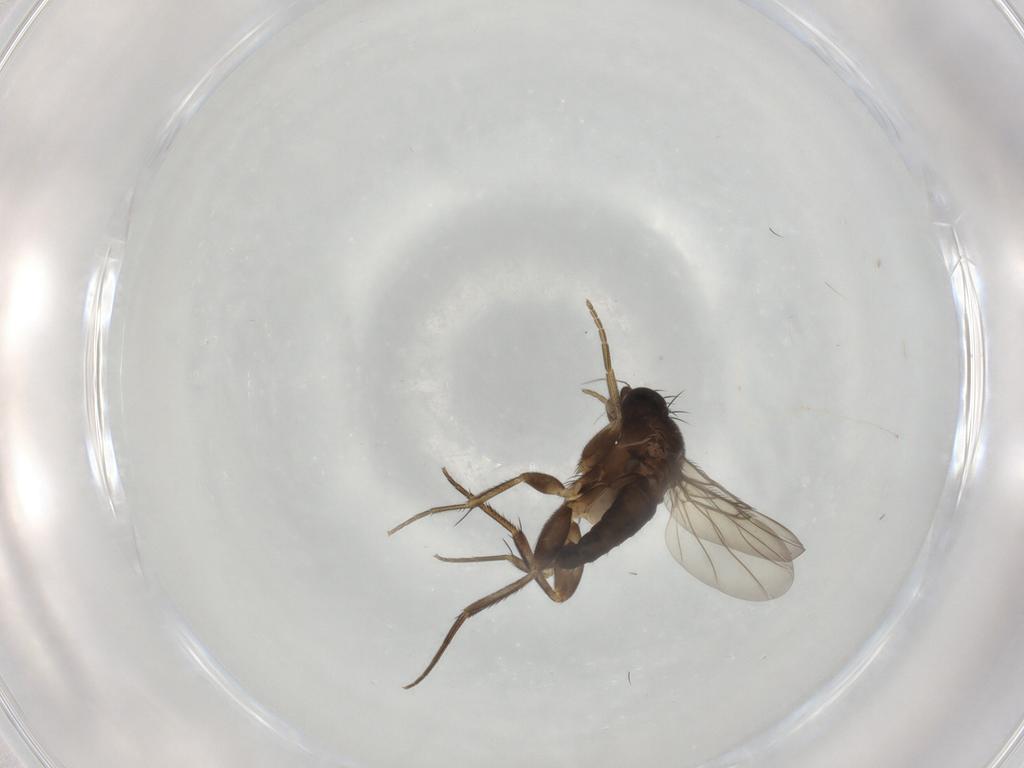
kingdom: Animalia
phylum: Arthropoda
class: Insecta
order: Diptera
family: Phoridae
